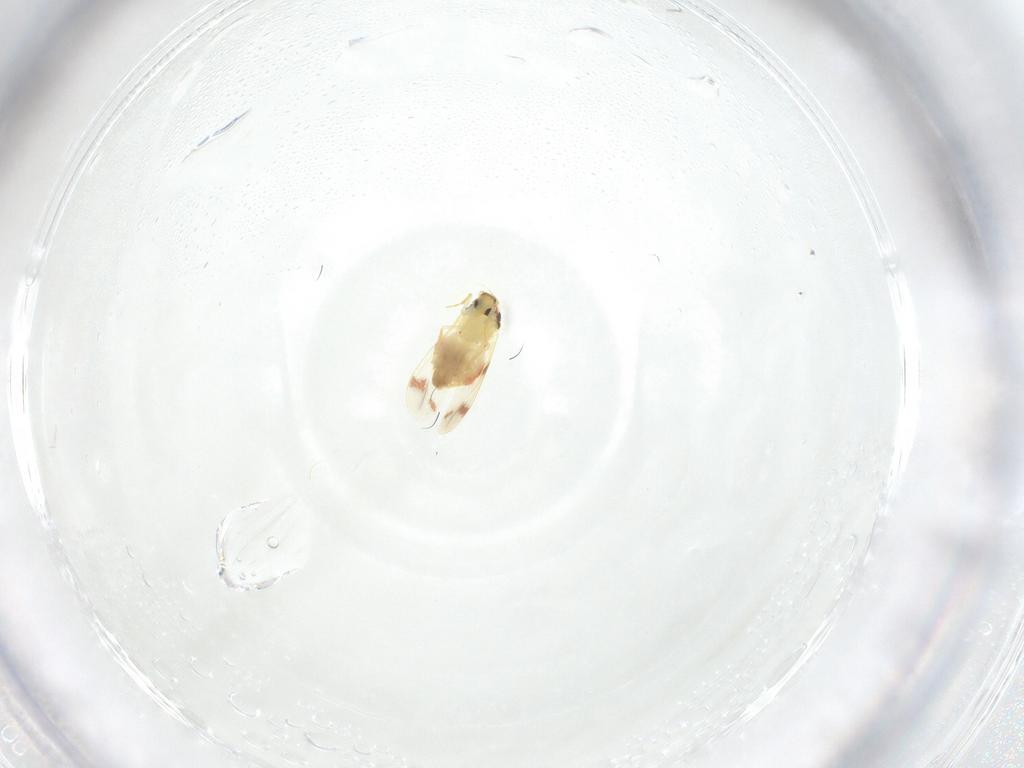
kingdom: Animalia
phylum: Arthropoda
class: Insecta
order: Hemiptera
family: Aleyrodidae
